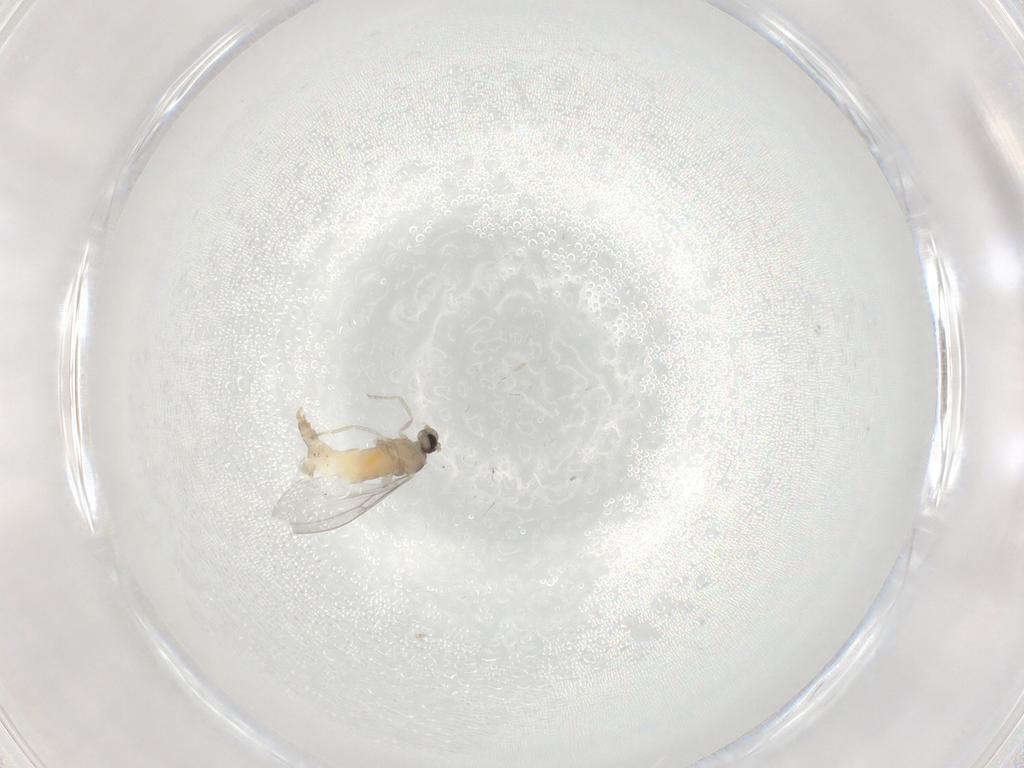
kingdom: Animalia
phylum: Arthropoda
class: Insecta
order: Diptera
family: Cecidomyiidae
